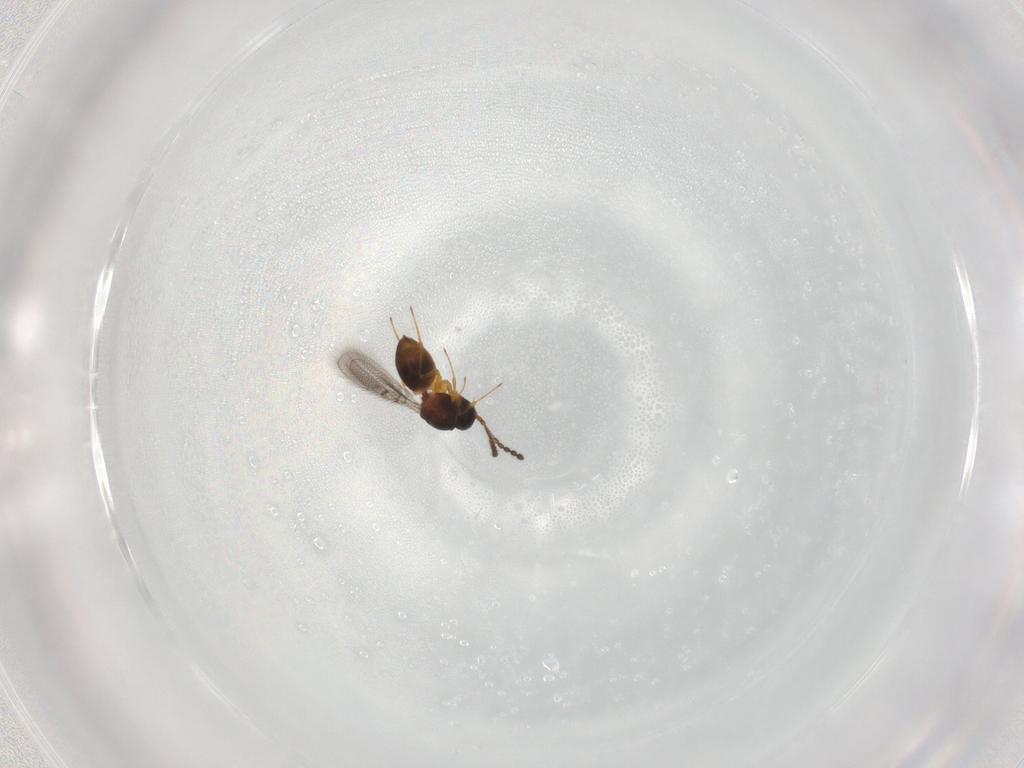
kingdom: Animalia
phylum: Arthropoda
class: Insecta
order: Hymenoptera
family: Figitidae
